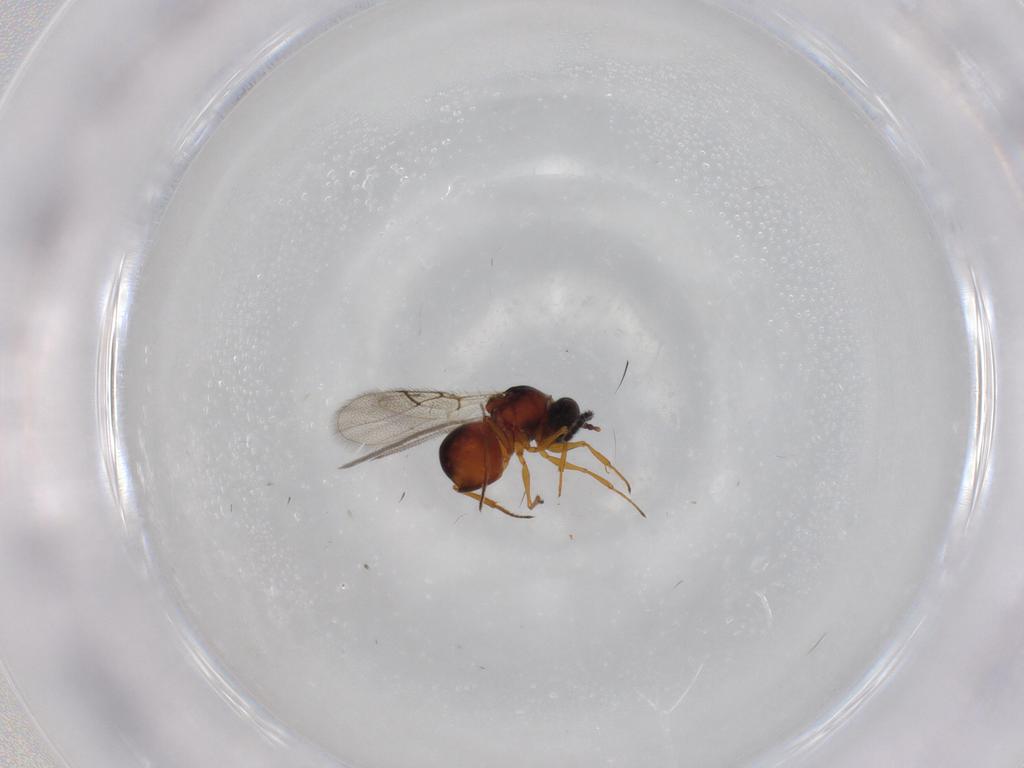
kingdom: Animalia
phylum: Arthropoda
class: Insecta
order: Hymenoptera
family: Figitidae
